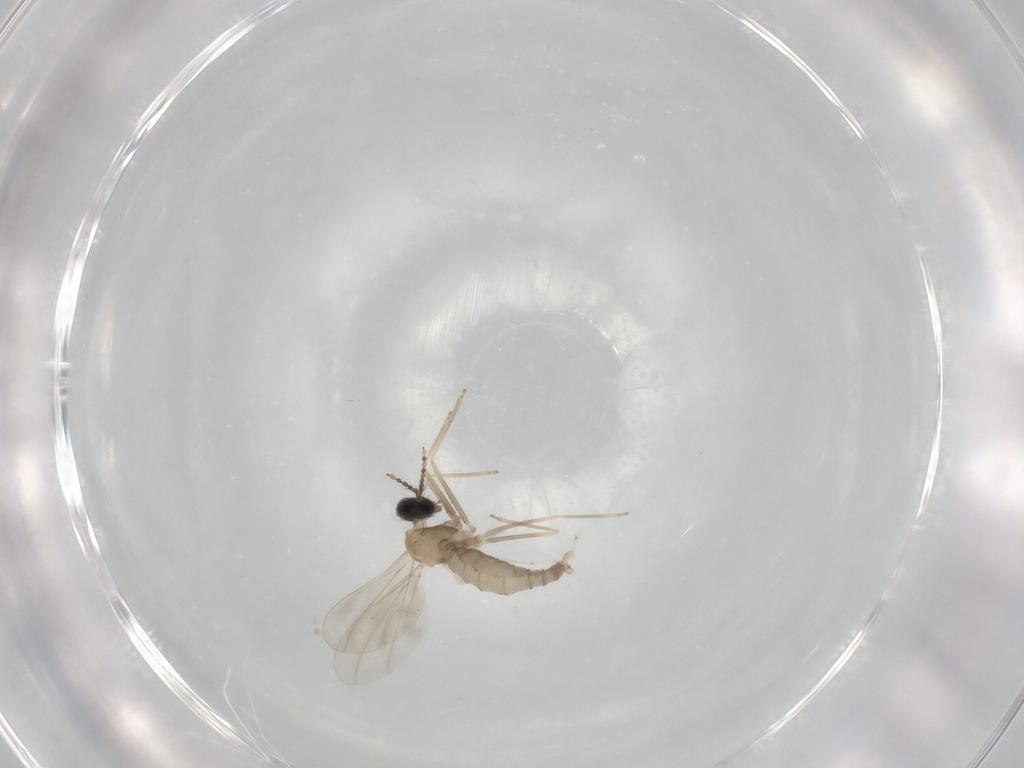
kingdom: Animalia
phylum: Arthropoda
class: Insecta
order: Diptera
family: Cecidomyiidae
